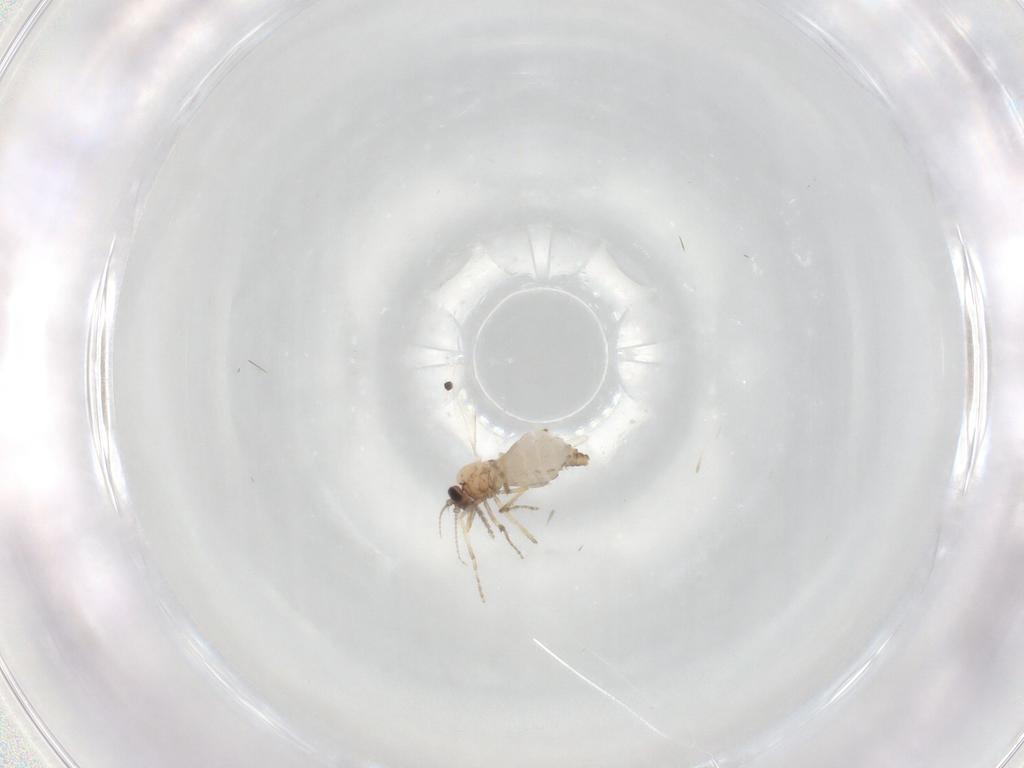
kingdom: Animalia
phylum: Arthropoda
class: Insecta
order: Diptera
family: Ceratopogonidae
